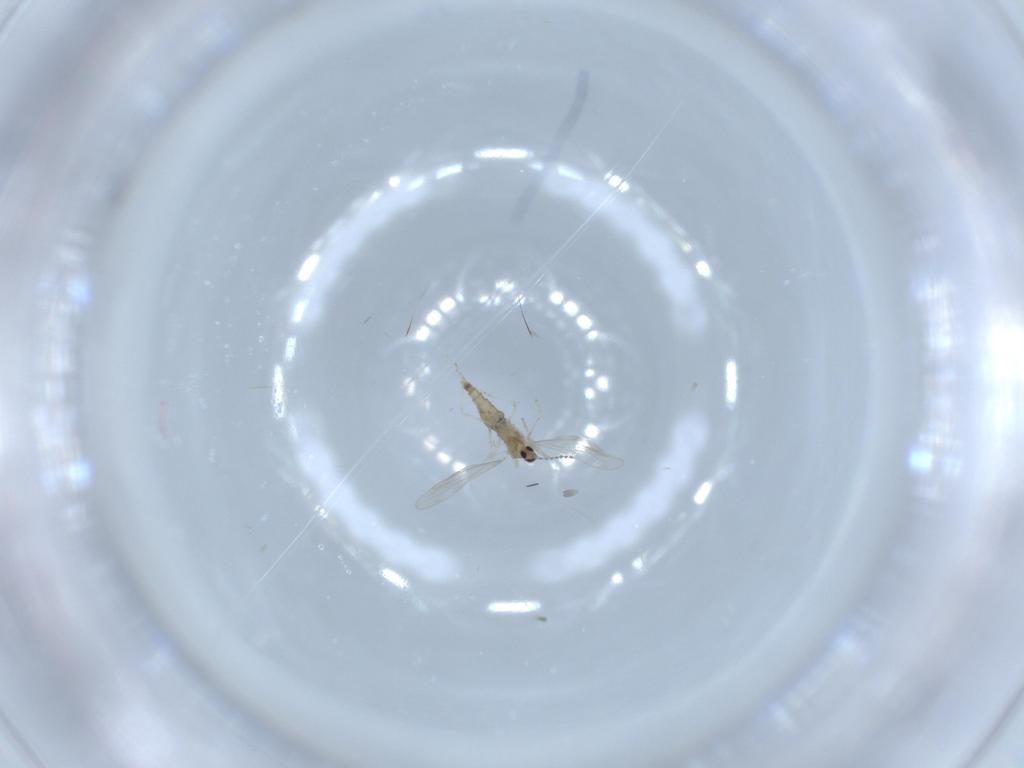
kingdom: Animalia
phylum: Arthropoda
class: Insecta
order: Diptera
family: Cecidomyiidae
